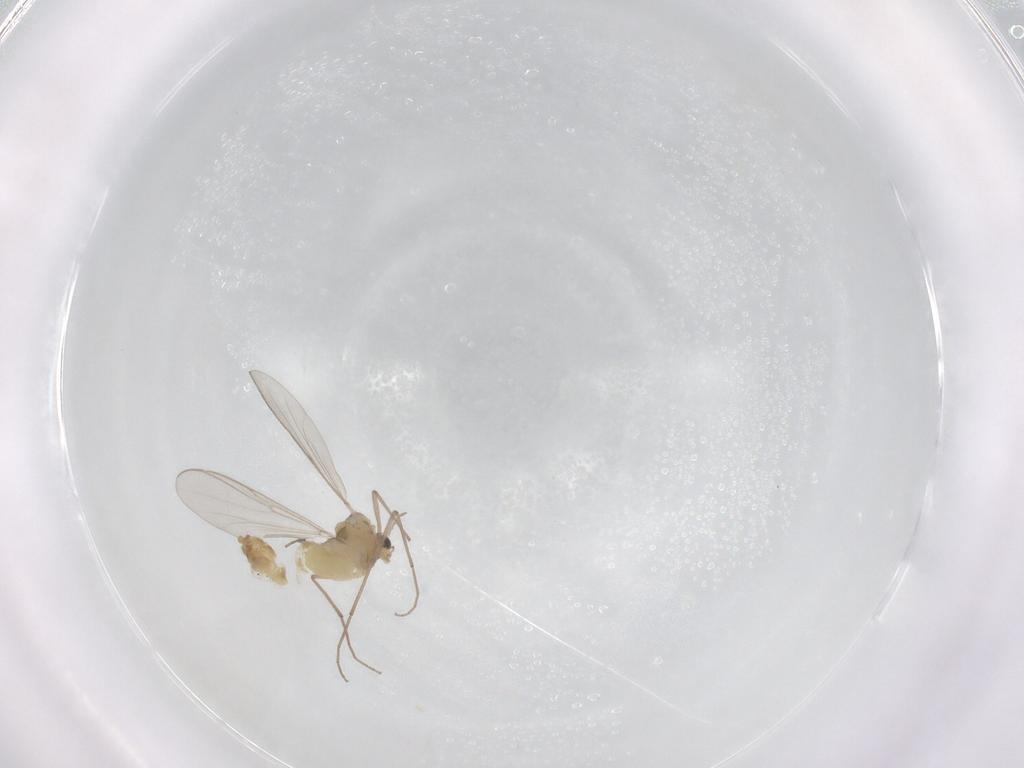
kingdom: Animalia
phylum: Arthropoda
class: Insecta
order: Diptera
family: Chironomidae
